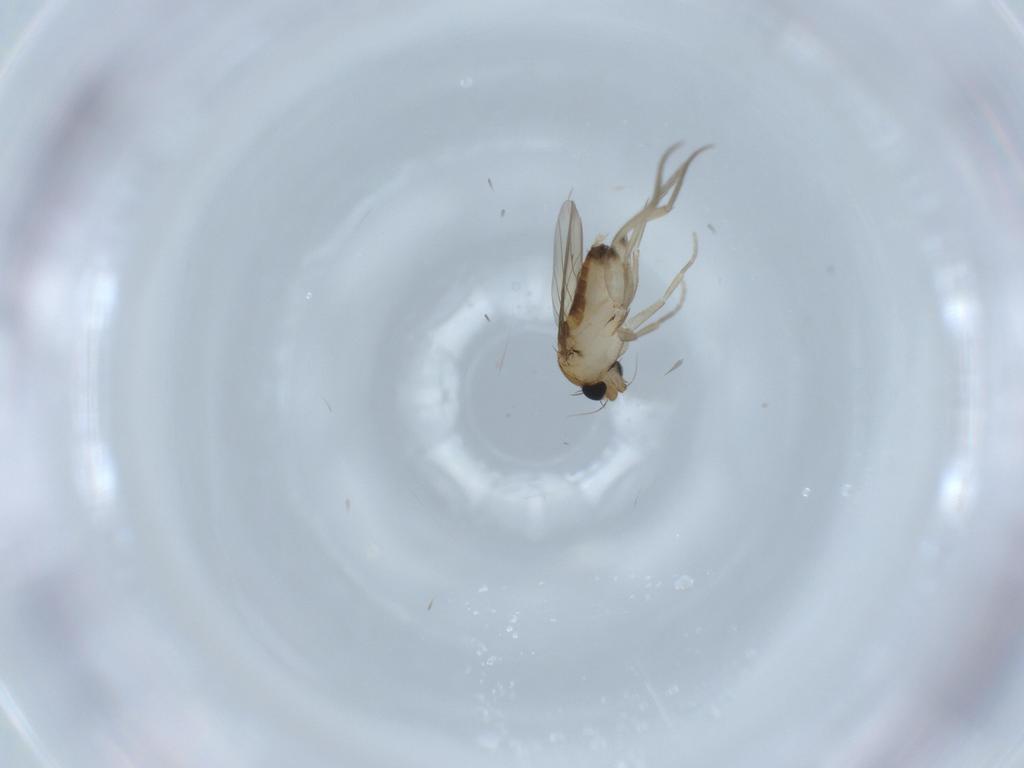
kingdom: Animalia
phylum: Arthropoda
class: Insecta
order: Diptera
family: Phoridae
